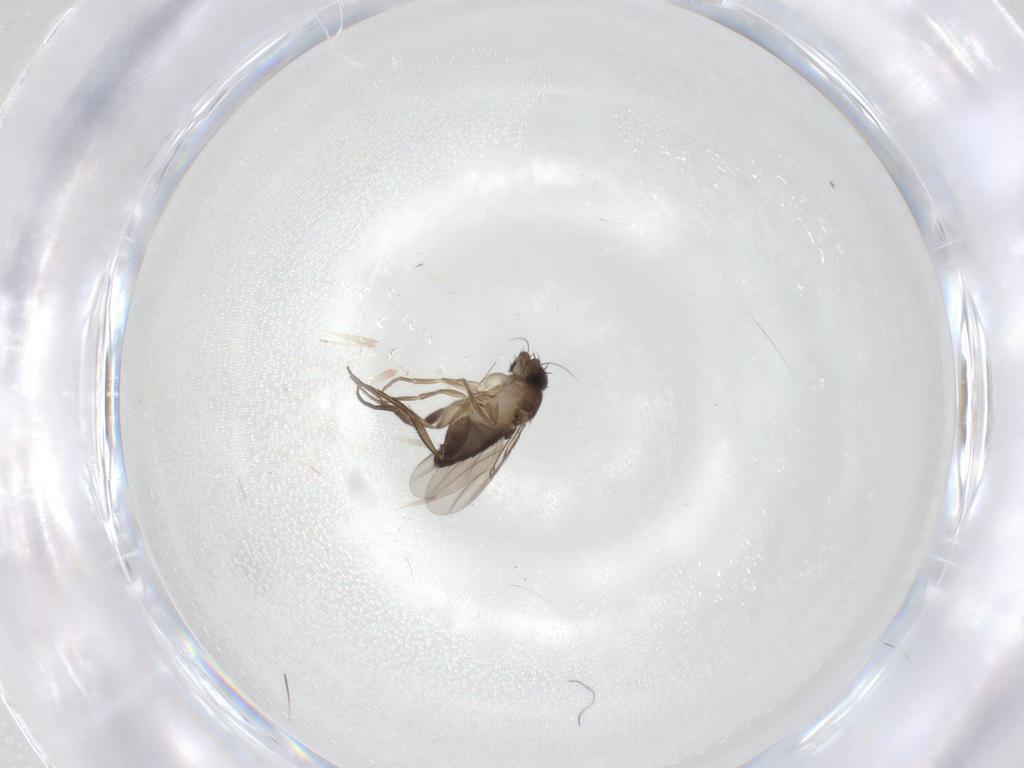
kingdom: Animalia
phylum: Arthropoda
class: Insecta
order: Diptera
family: Phoridae
